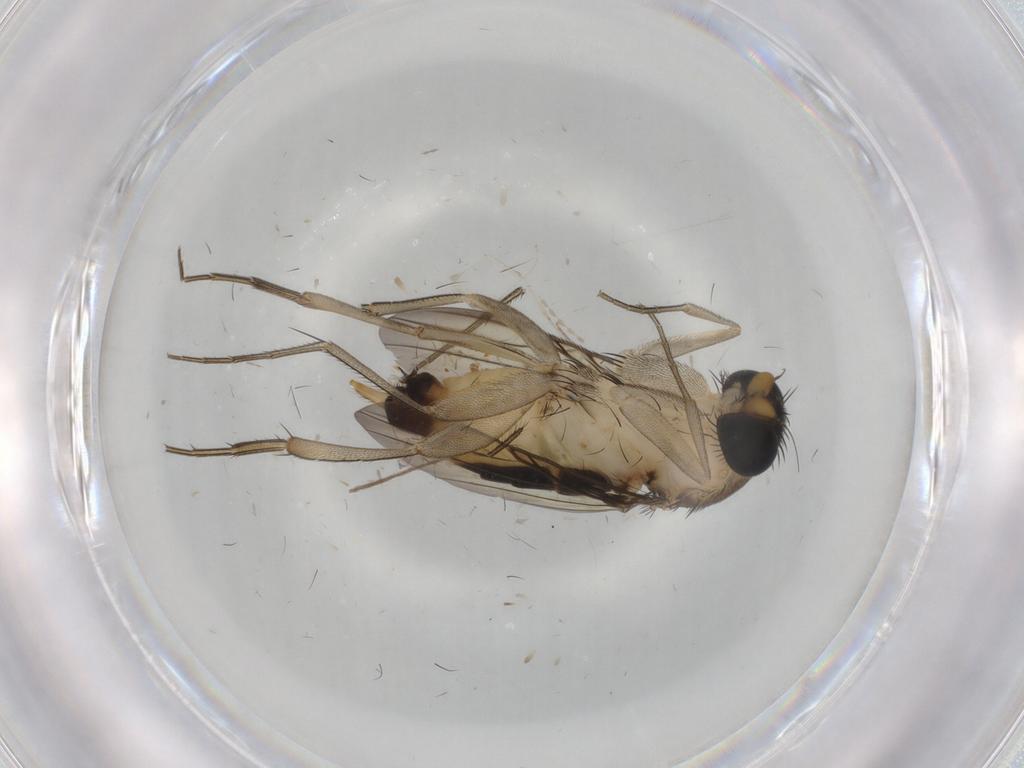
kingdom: Animalia
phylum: Arthropoda
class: Insecta
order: Diptera
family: Phoridae
